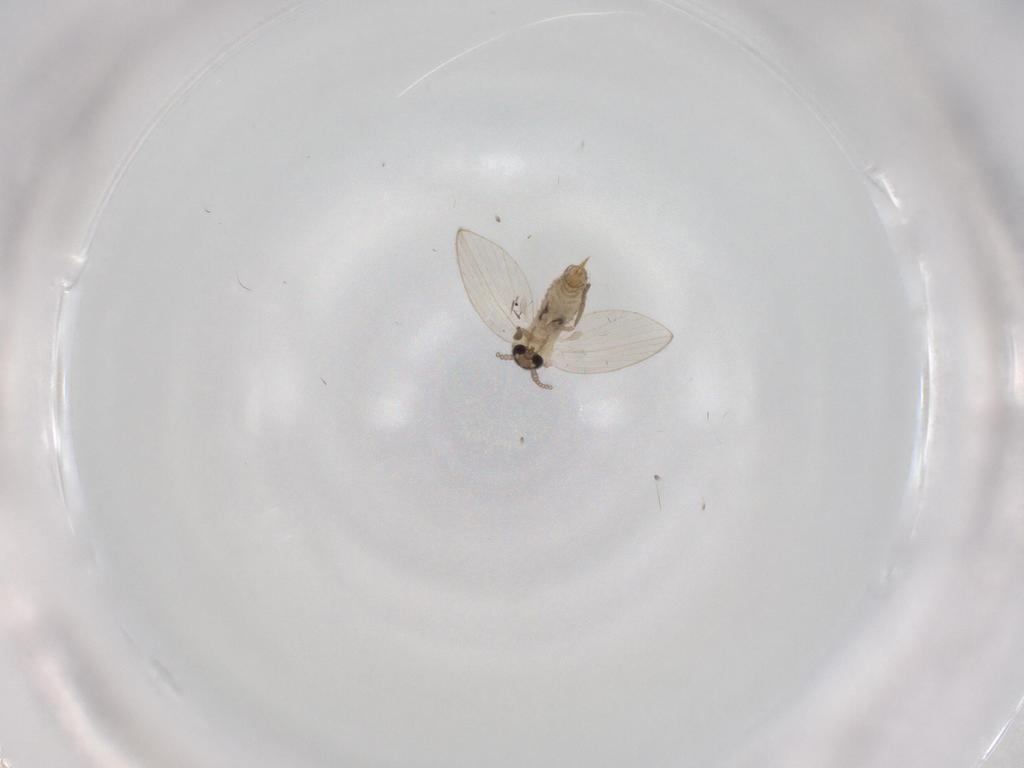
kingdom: Animalia
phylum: Arthropoda
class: Insecta
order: Diptera
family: Psychodidae
